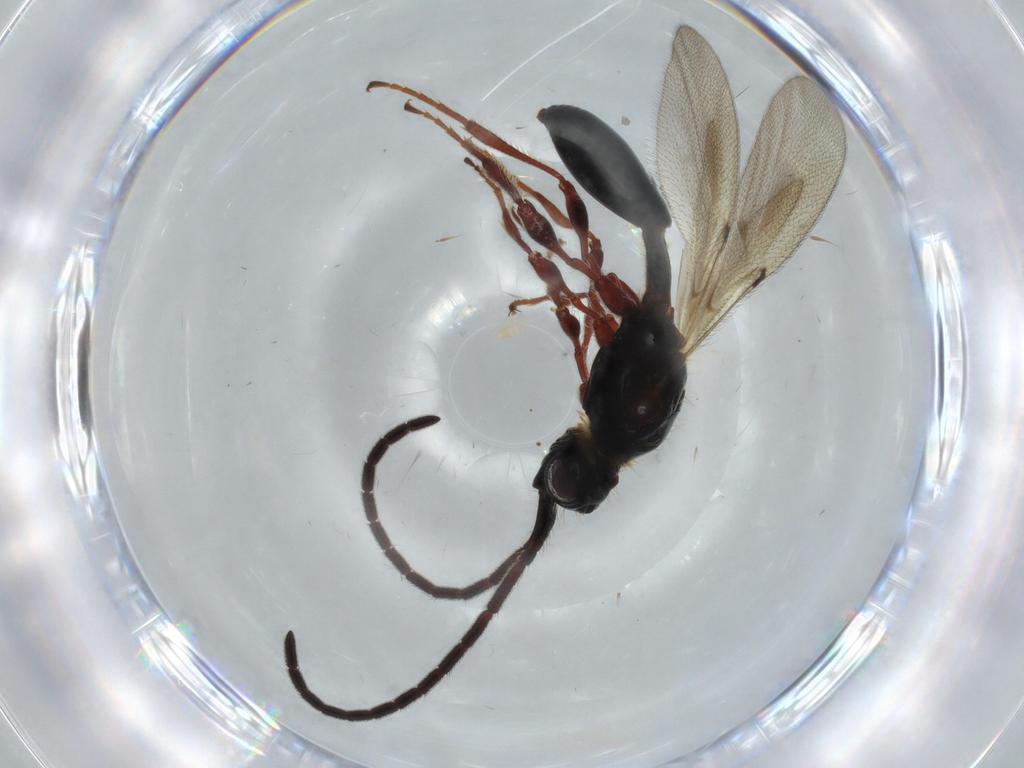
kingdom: Animalia
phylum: Arthropoda
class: Insecta
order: Hymenoptera
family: Diapriidae
